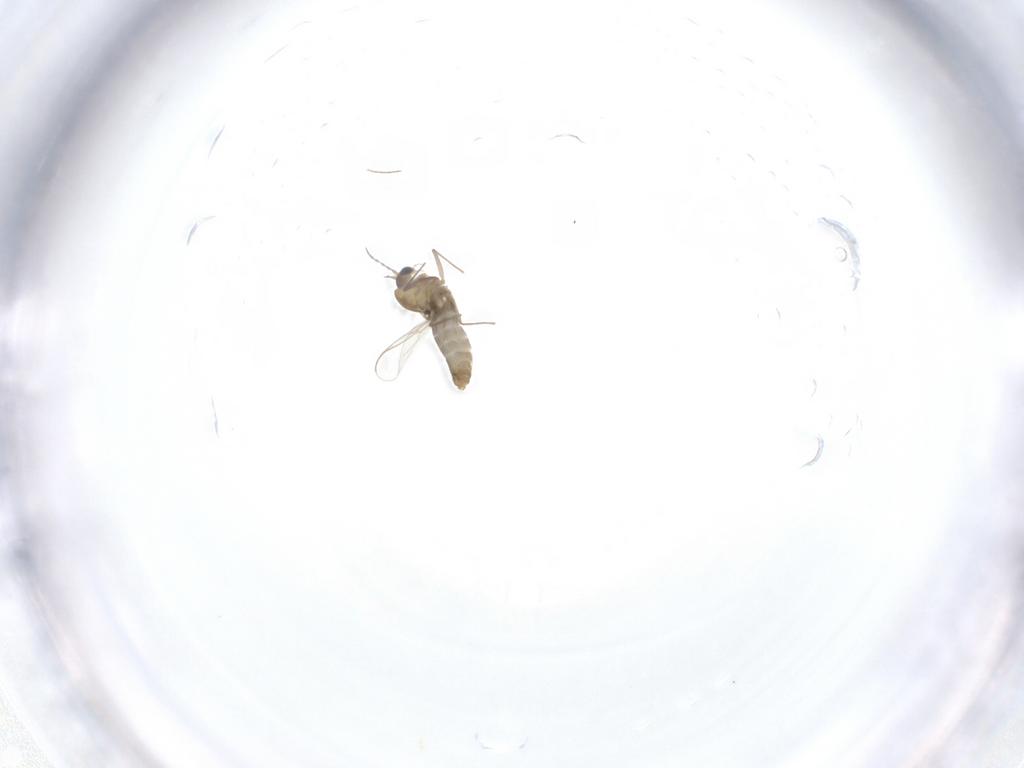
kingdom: Animalia
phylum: Arthropoda
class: Insecta
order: Diptera
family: Chironomidae
